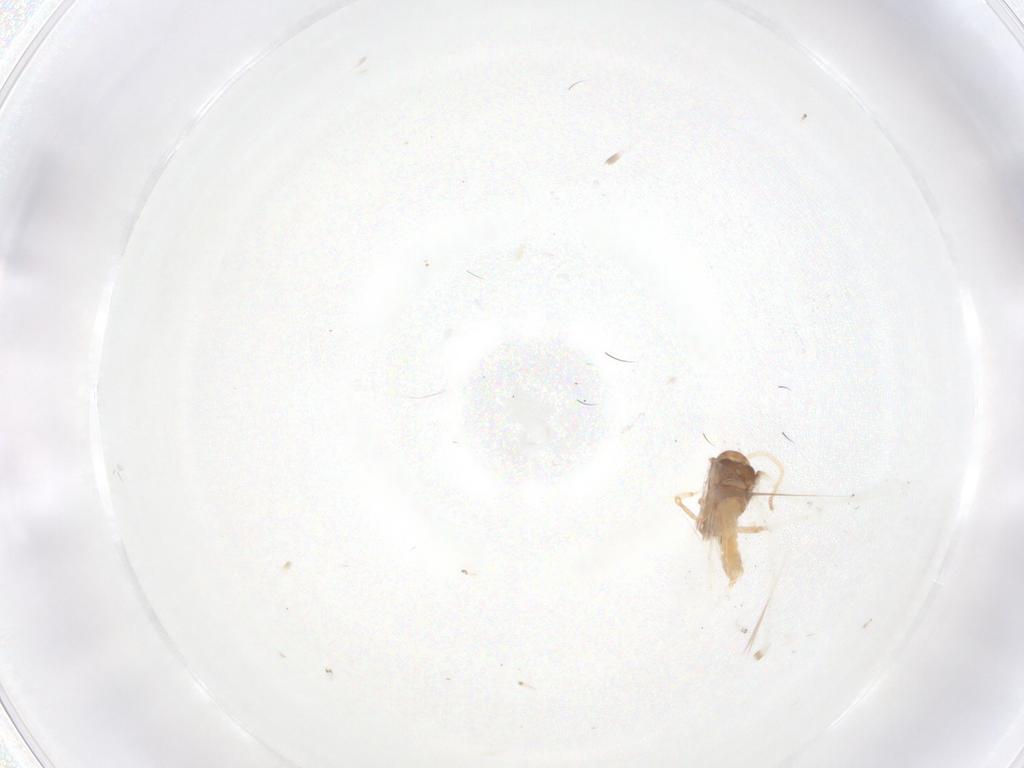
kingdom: Animalia
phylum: Arthropoda
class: Insecta
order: Neuroptera
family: Coniopterygidae
